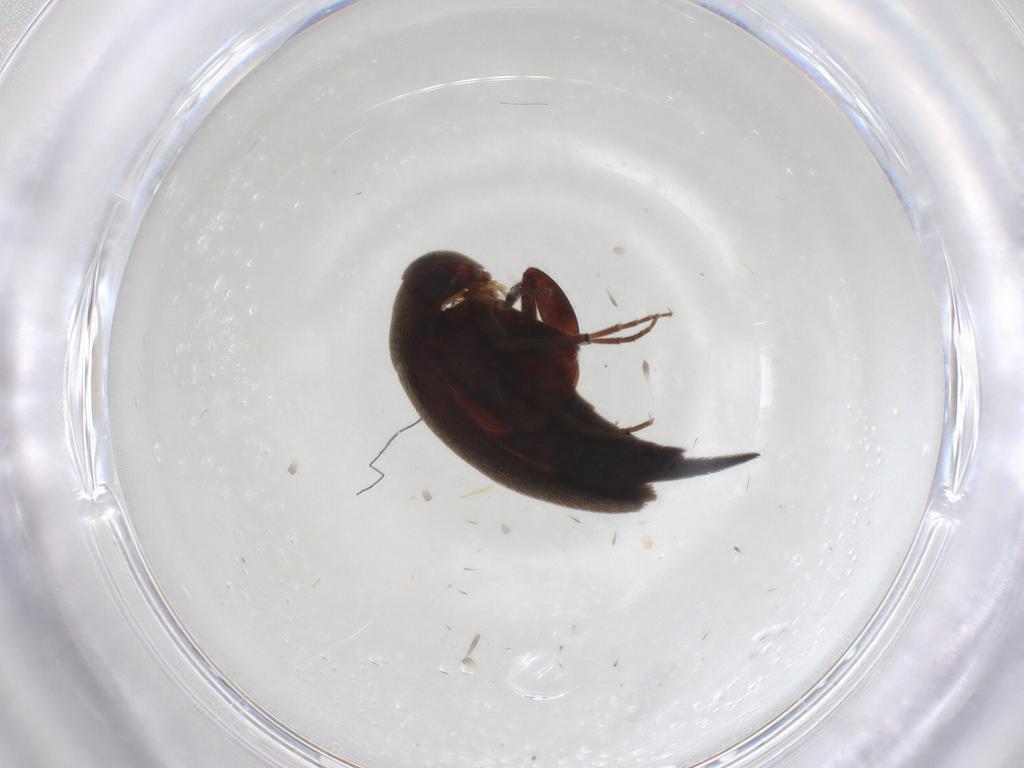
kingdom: Animalia
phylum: Arthropoda
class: Insecta
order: Coleoptera
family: Mordellidae
